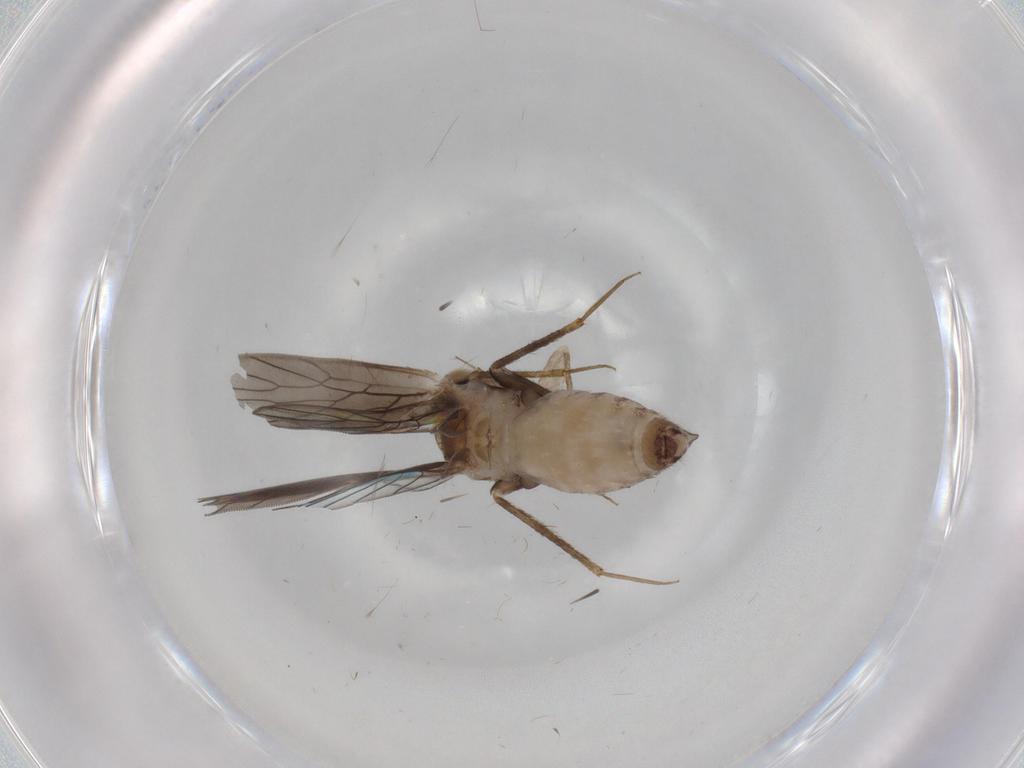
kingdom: Animalia
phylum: Arthropoda
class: Insecta
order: Psocodea
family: Lepidopsocidae
